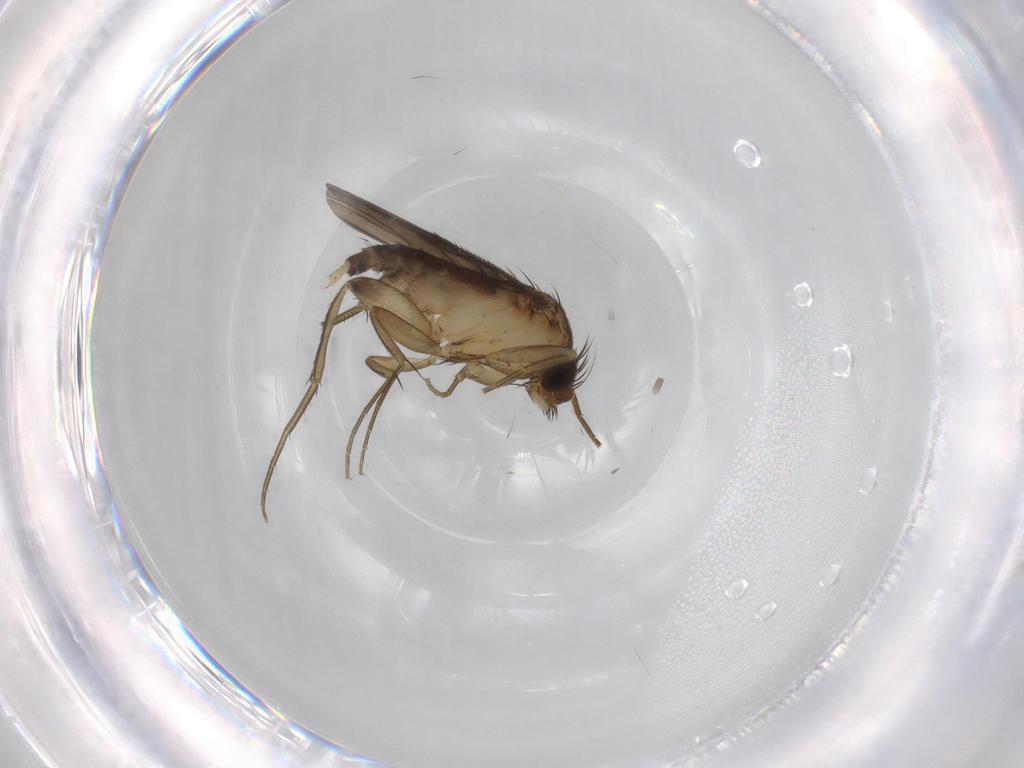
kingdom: Animalia
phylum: Arthropoda
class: Insecta
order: Diptera
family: Phoridae
